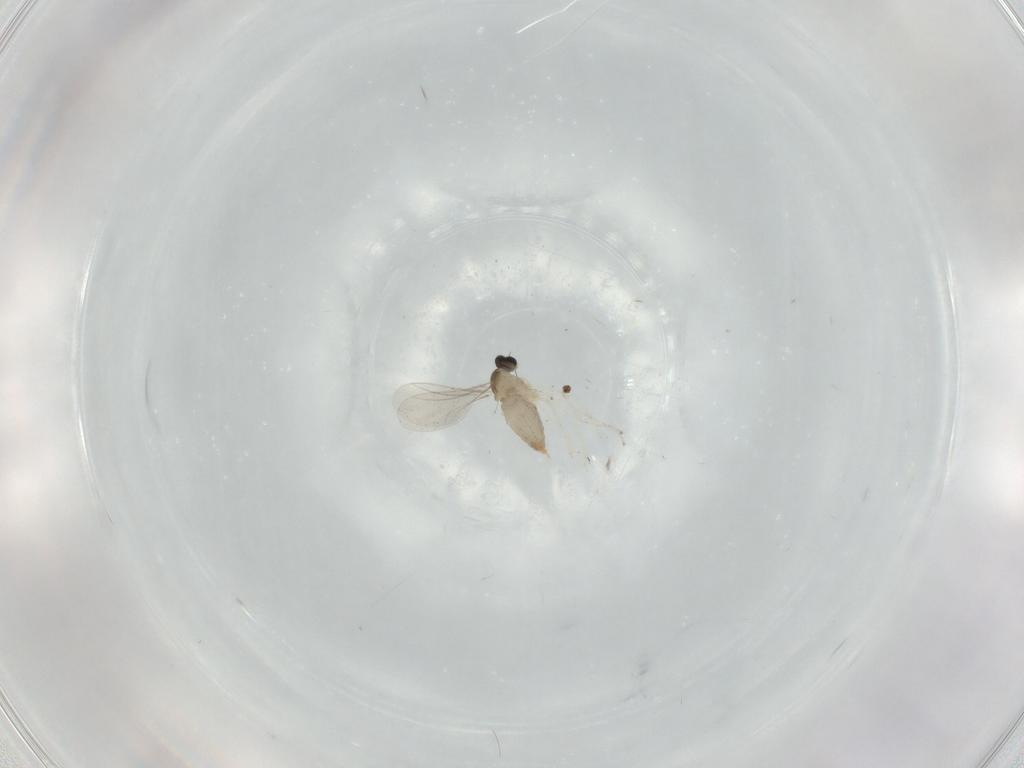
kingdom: Animalia
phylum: Arthropoda
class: Insecta
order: Diptera
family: Cecidomyiidae
